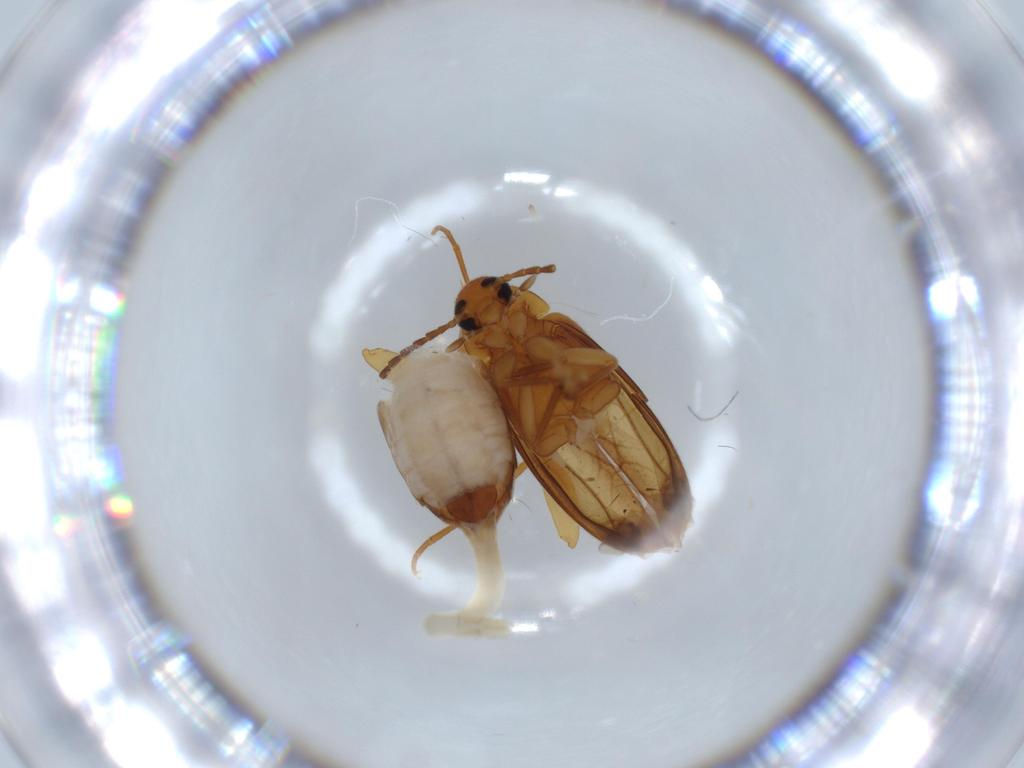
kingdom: Animalia
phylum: Arthropoda
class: Insecta
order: Coleoptera
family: Scraptiidae
